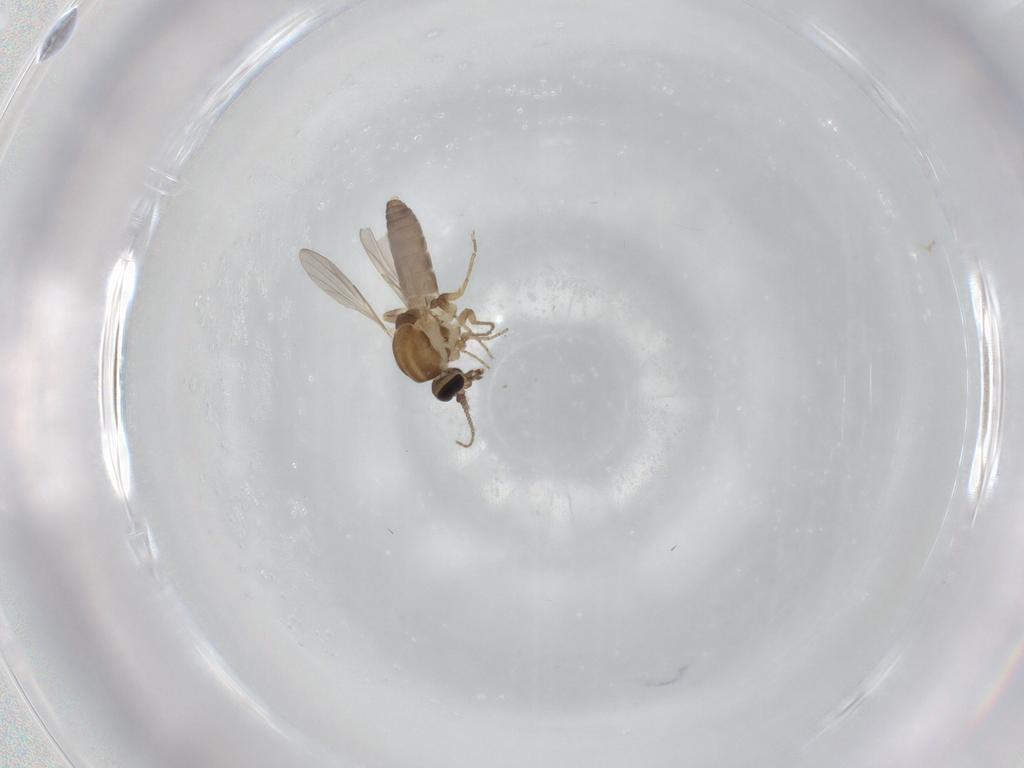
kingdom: Animalia
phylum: Arthropoda
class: Insecta
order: Diptera
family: Ceratopogonidae
